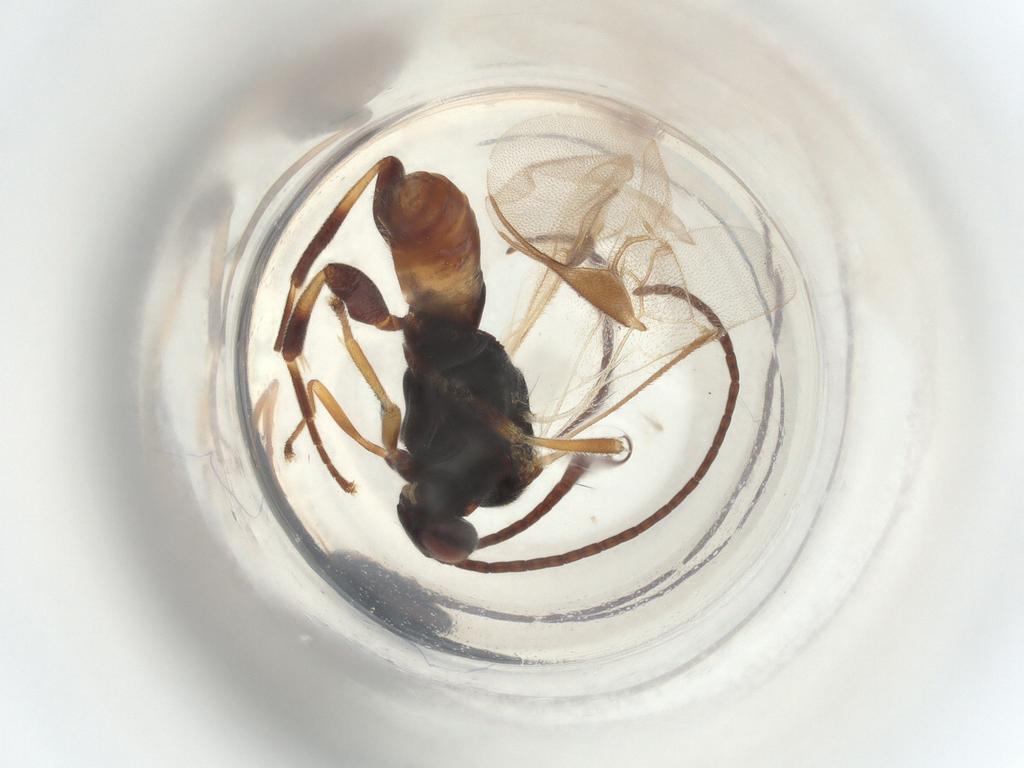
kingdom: Animalia
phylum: Arthropoda
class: Insecta
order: Hymenoptera
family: Braconidae
